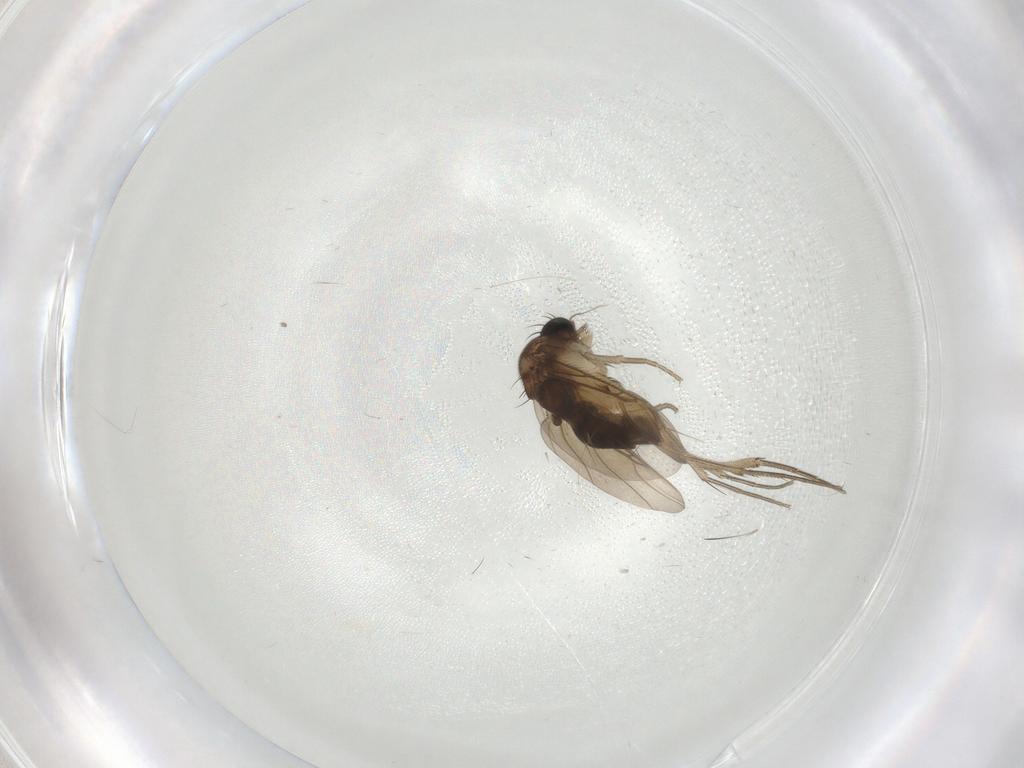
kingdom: Animalia
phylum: Arthropoda
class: Insecta
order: Diptera
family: Phoridae
